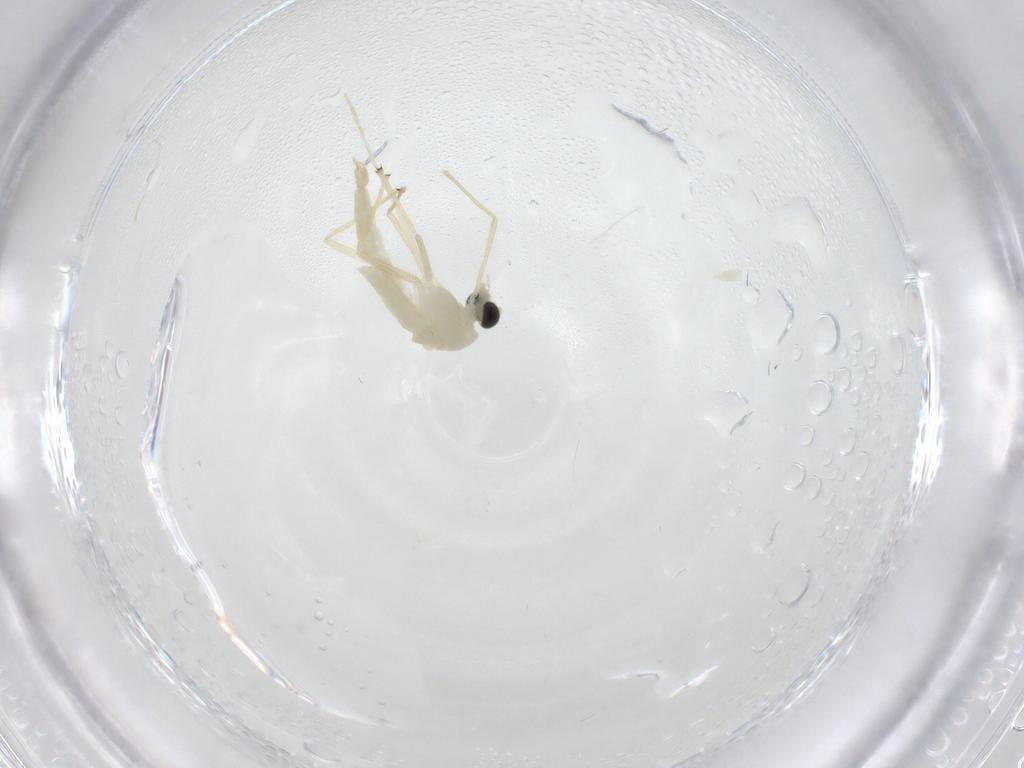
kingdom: Animalia
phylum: Arthropoda
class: Insecta
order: Diptera
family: Chironomidae
